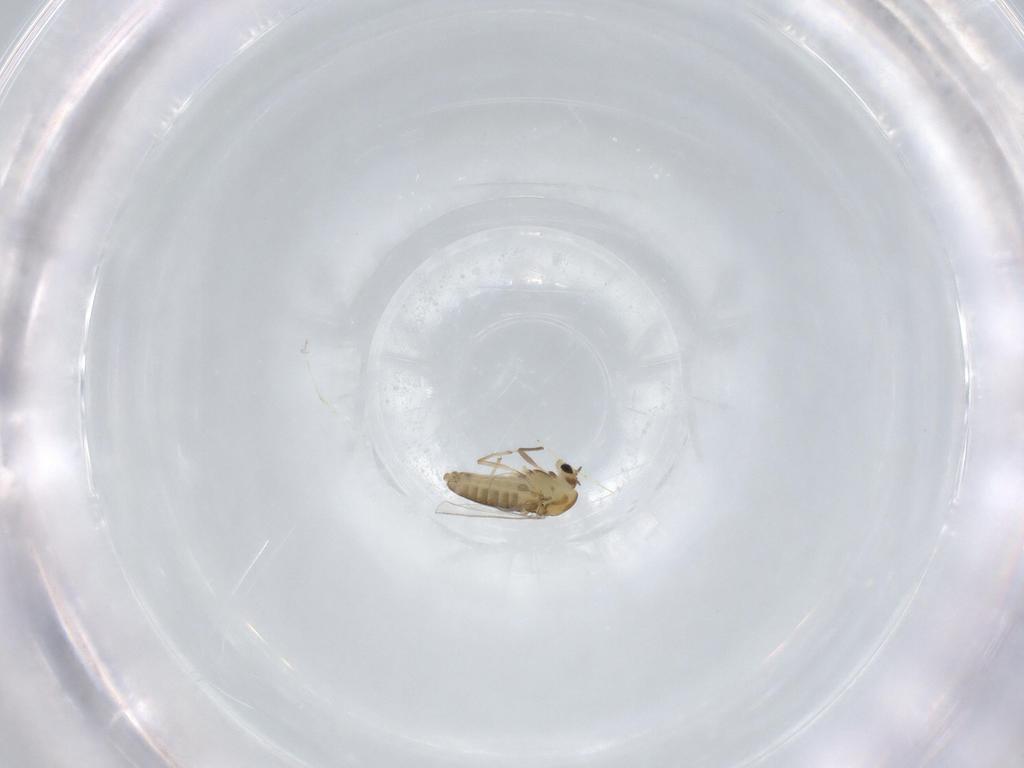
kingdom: Animalia
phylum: Arthropoda
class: Insecta
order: Diptera
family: Chironomidae
